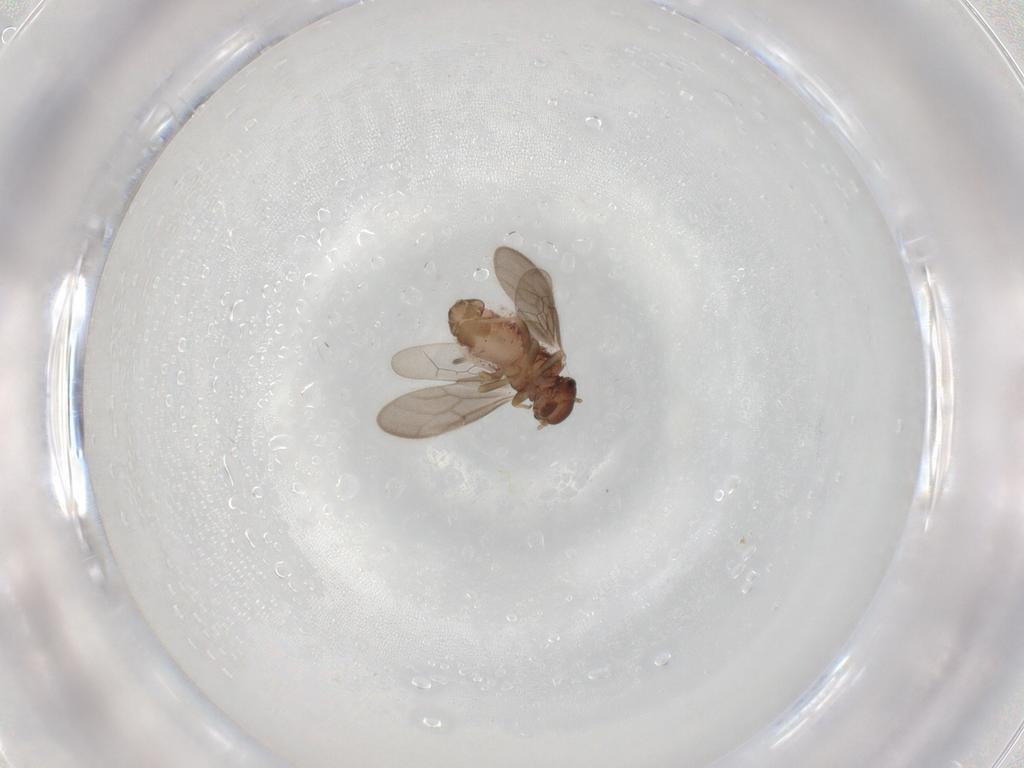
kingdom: Animalia
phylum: Arthropoda
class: Insecta
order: Psocodea
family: Archipsocidae
